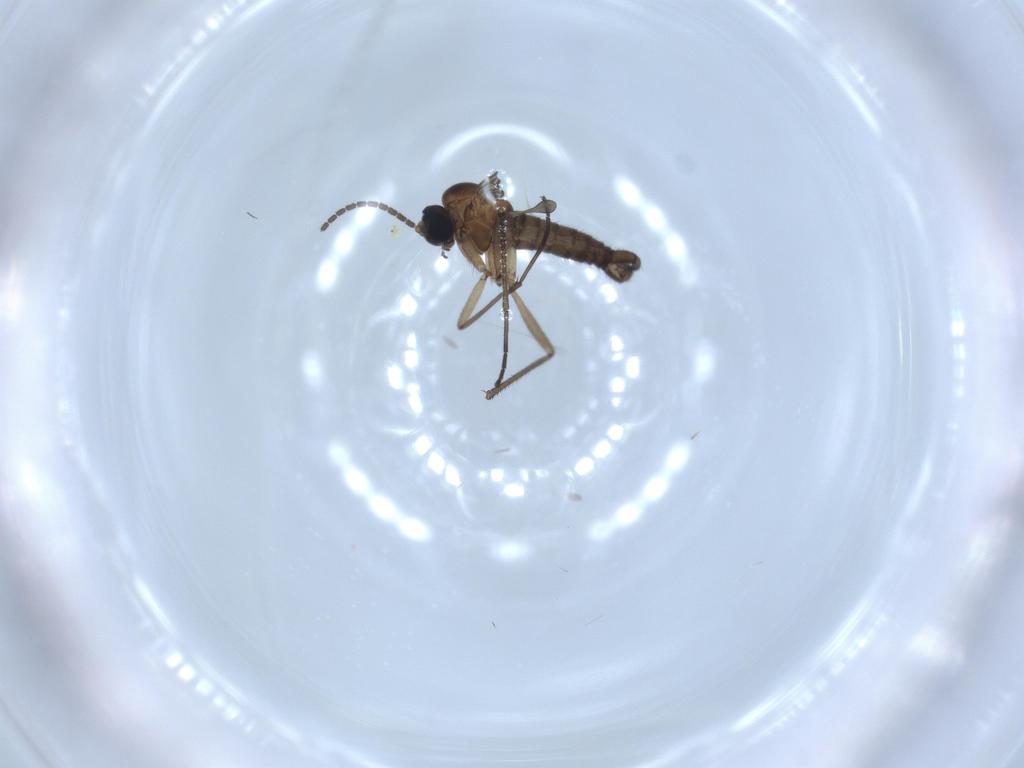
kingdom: Animalia
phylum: Arthropoda
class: Insecta
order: Diptera
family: Sciaridae
